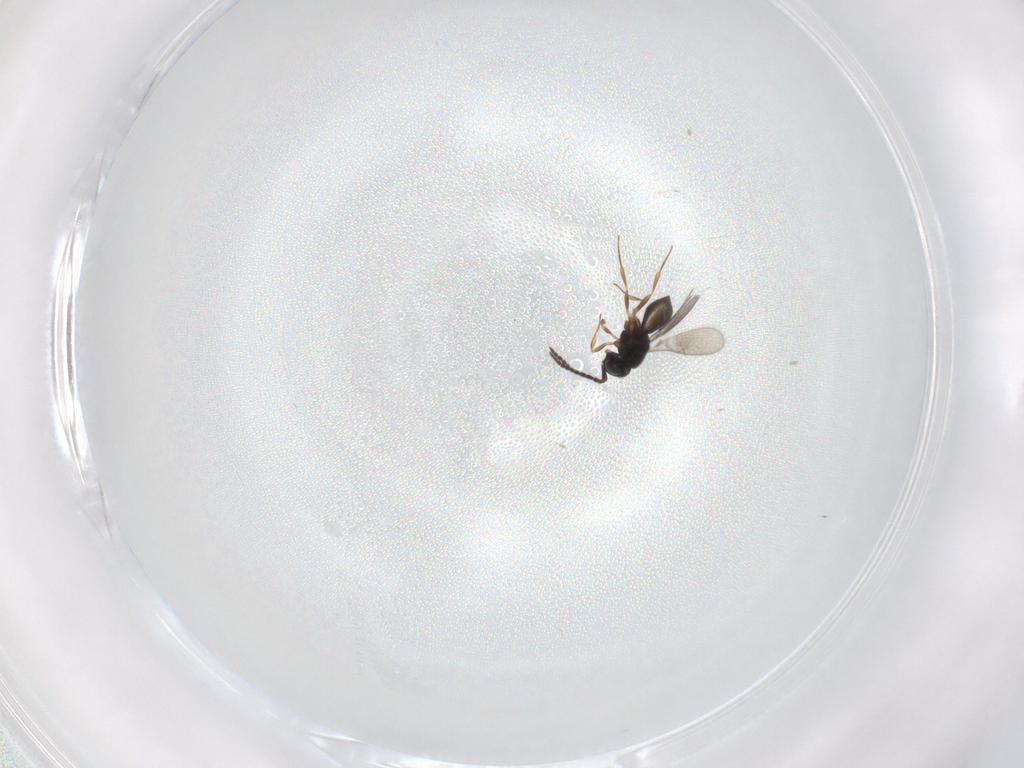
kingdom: Animalia
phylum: Arthropoda
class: Insecta
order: Hymenoptera
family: Scelionidae
